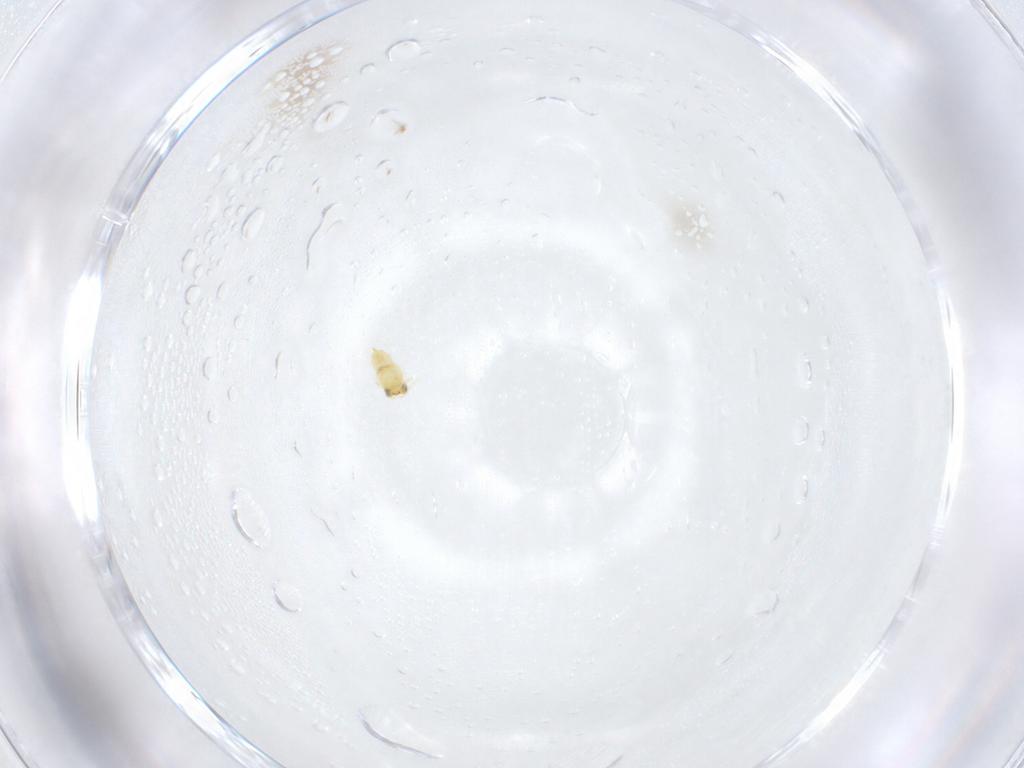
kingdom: Animalia
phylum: Arthropoda
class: Insecta
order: Hymenoptera
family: Aphelinidae
